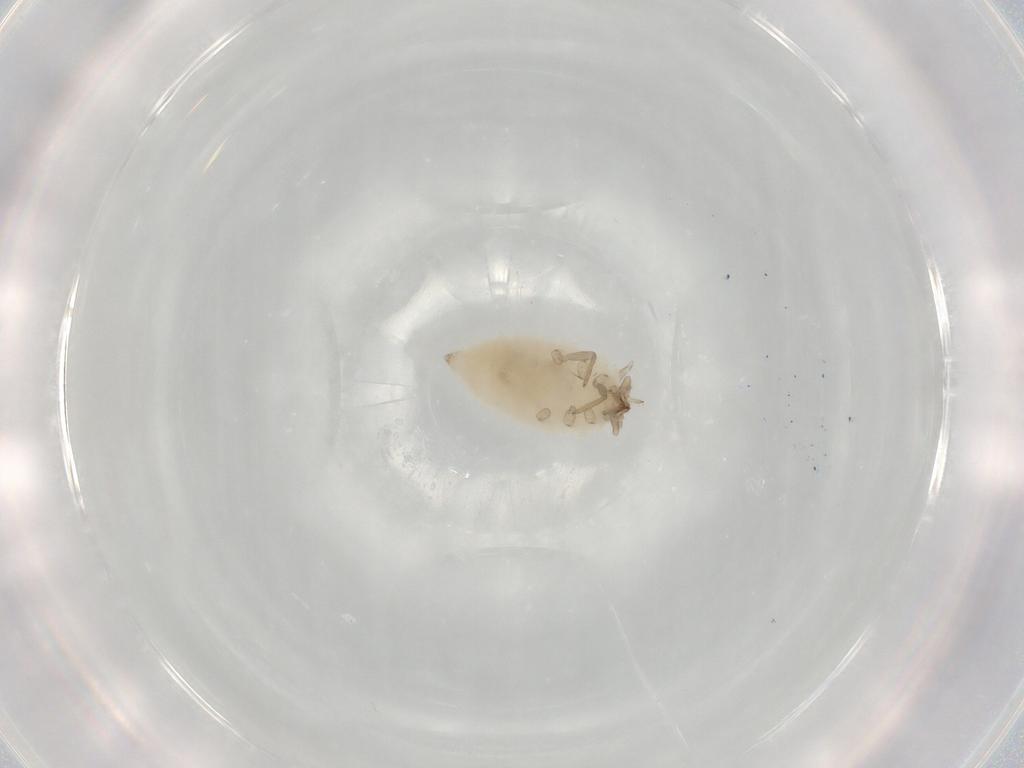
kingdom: Animalia
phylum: Arthropoda
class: Insecta
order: Neuroptera
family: Coniopterygidae
